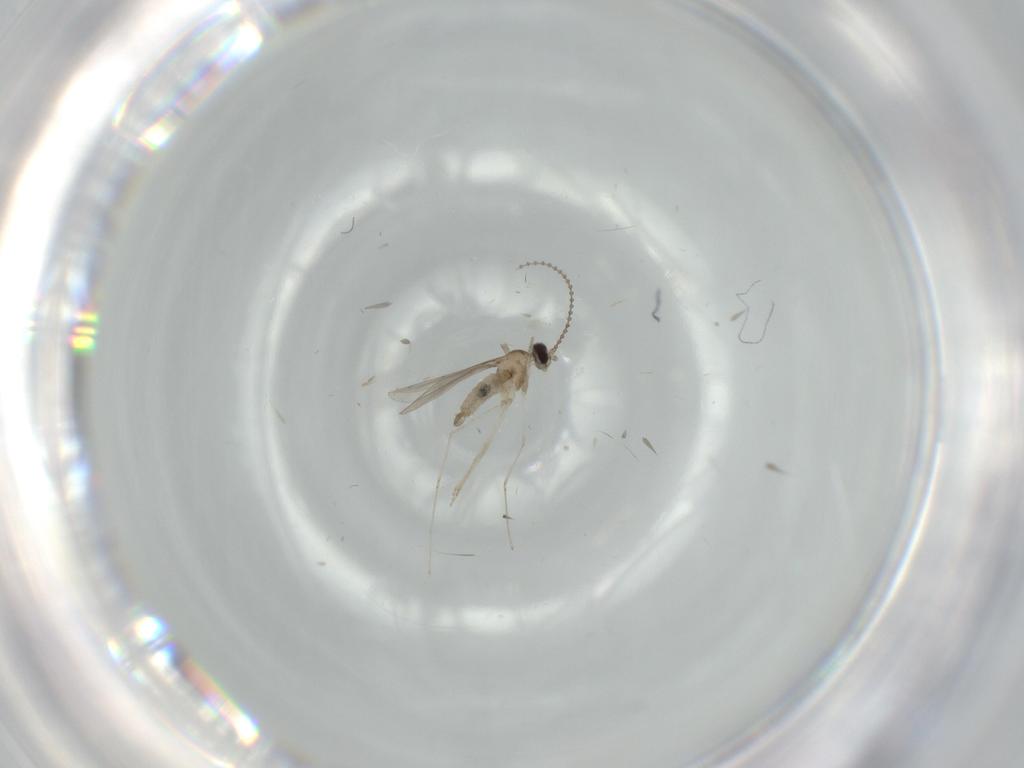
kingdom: Animalia
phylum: Arthropoda
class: Insecta
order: Diptera
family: Cecidomyiidae
